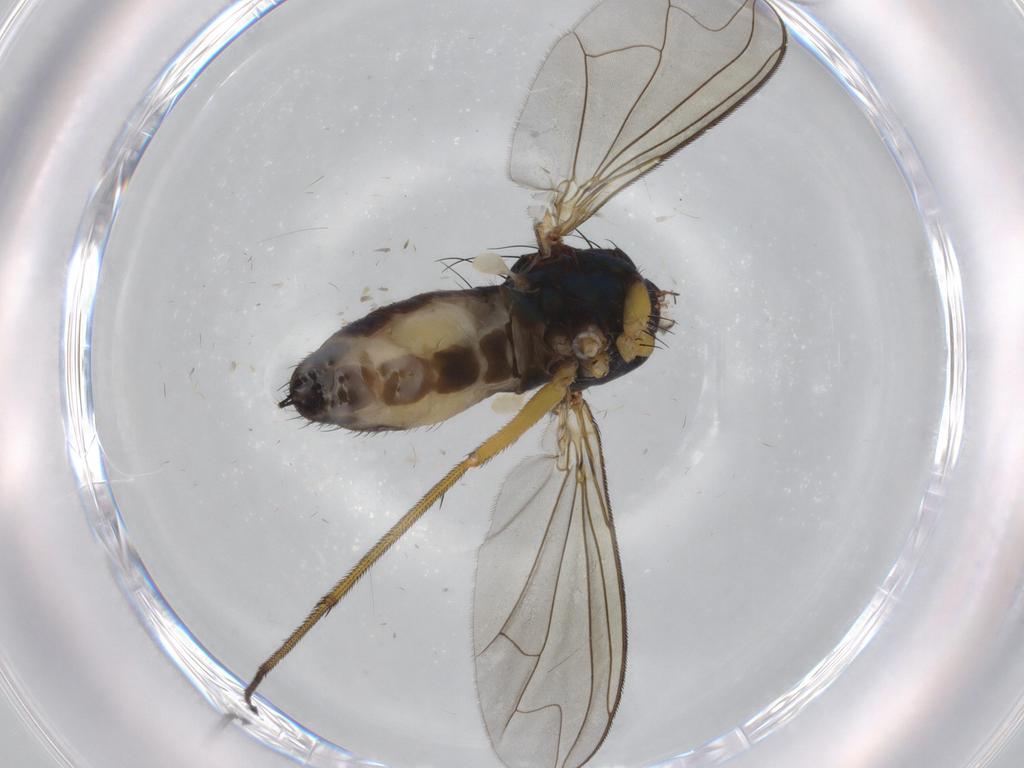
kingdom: Animalia
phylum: Arthropoda
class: Insecta
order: Diptera
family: Dolichopodidae
